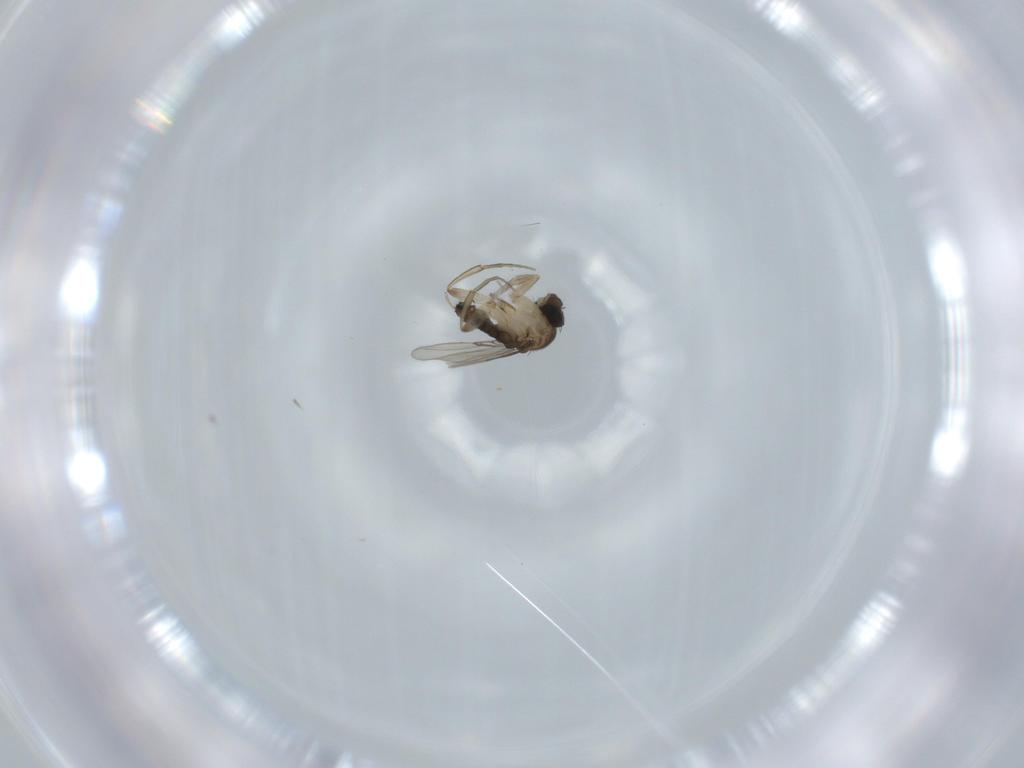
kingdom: Animalia
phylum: Arthropoda
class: Insecta
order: Diptera
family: Phoridae
